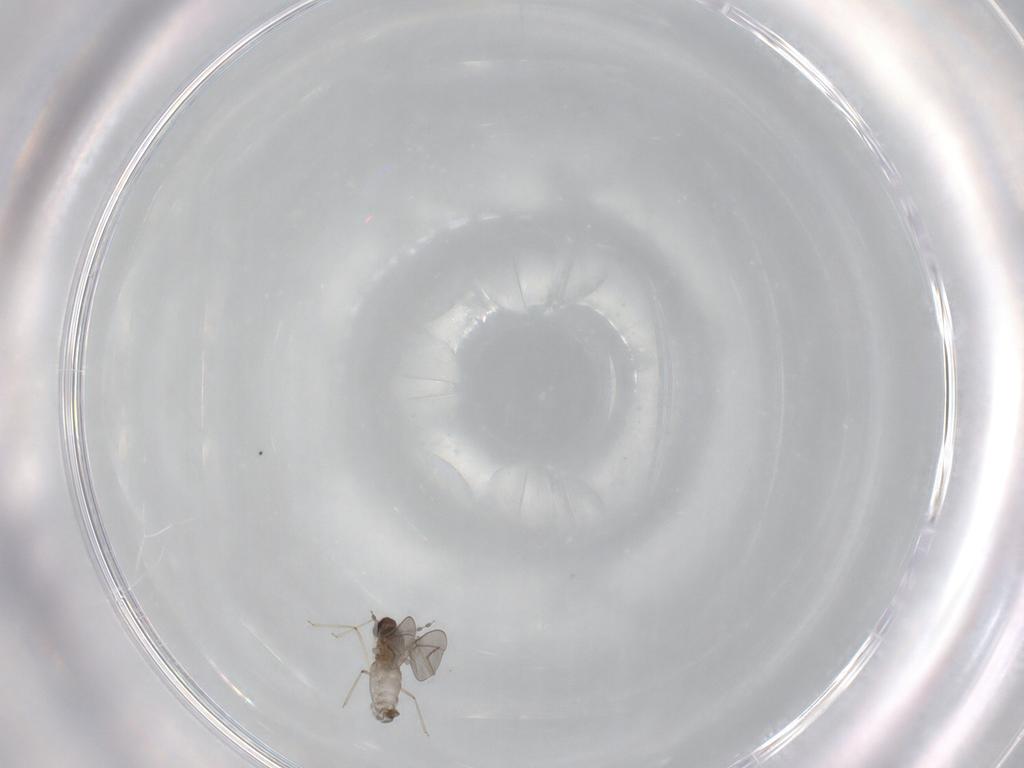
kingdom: Animalia
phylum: Arthropoda
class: Insecta
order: Diptera
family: Cecidomyiidae
